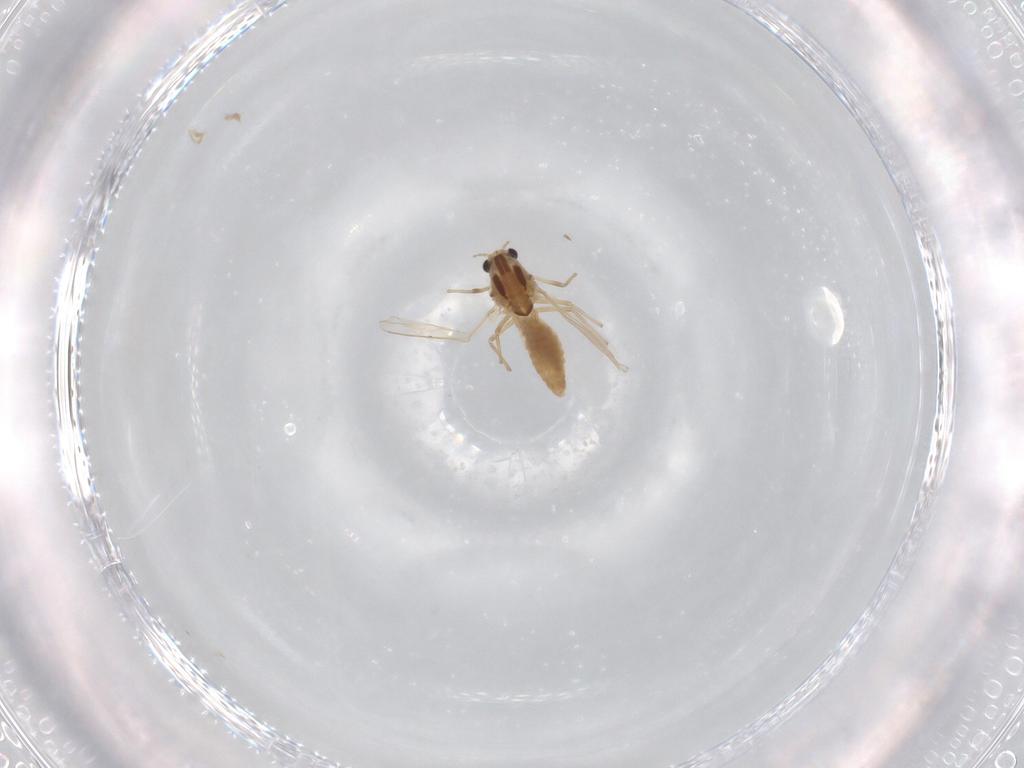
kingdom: Animalia
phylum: Arthropoda
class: Insecta
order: Diptera
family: Chironomidae
